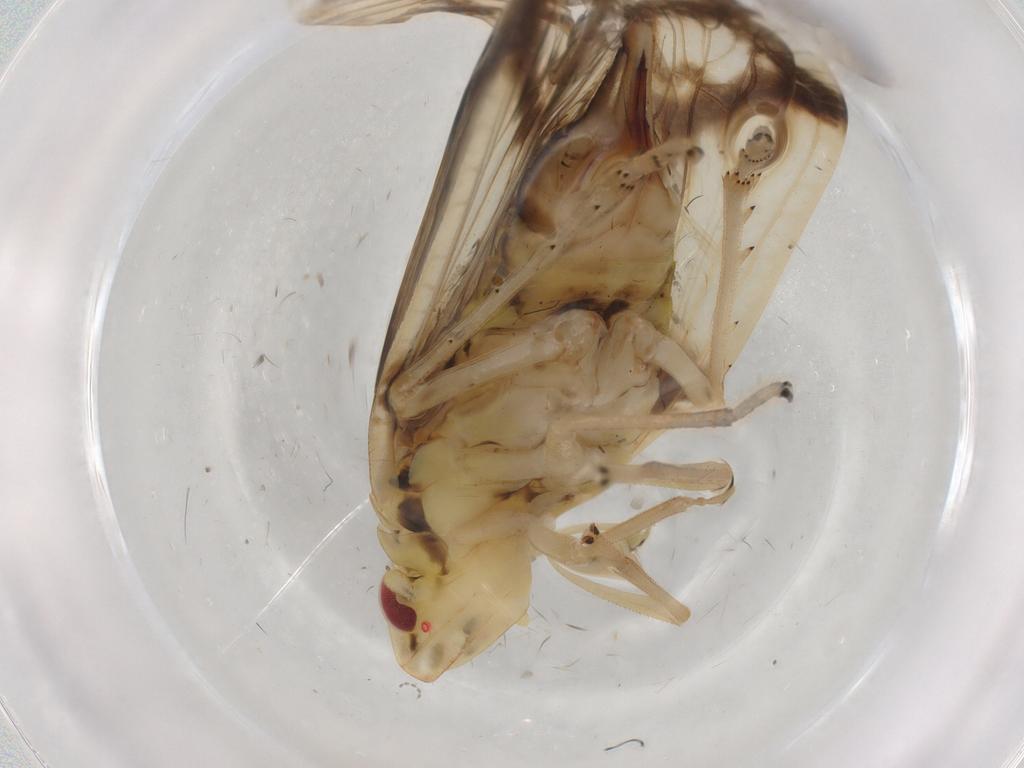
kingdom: Animalia
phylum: Arthropoda
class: Insecta
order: Hemiptera
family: Tropiduchidae
